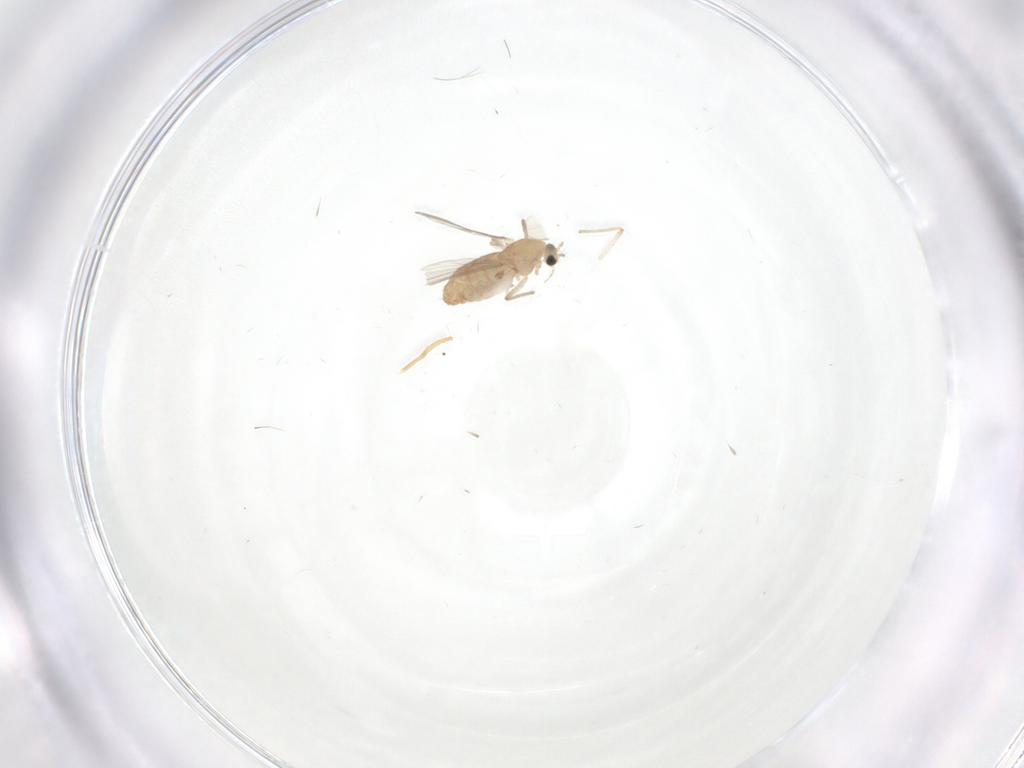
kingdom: Animalia
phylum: Arthropoda
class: Insecta
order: Diptera
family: Chironomidae
